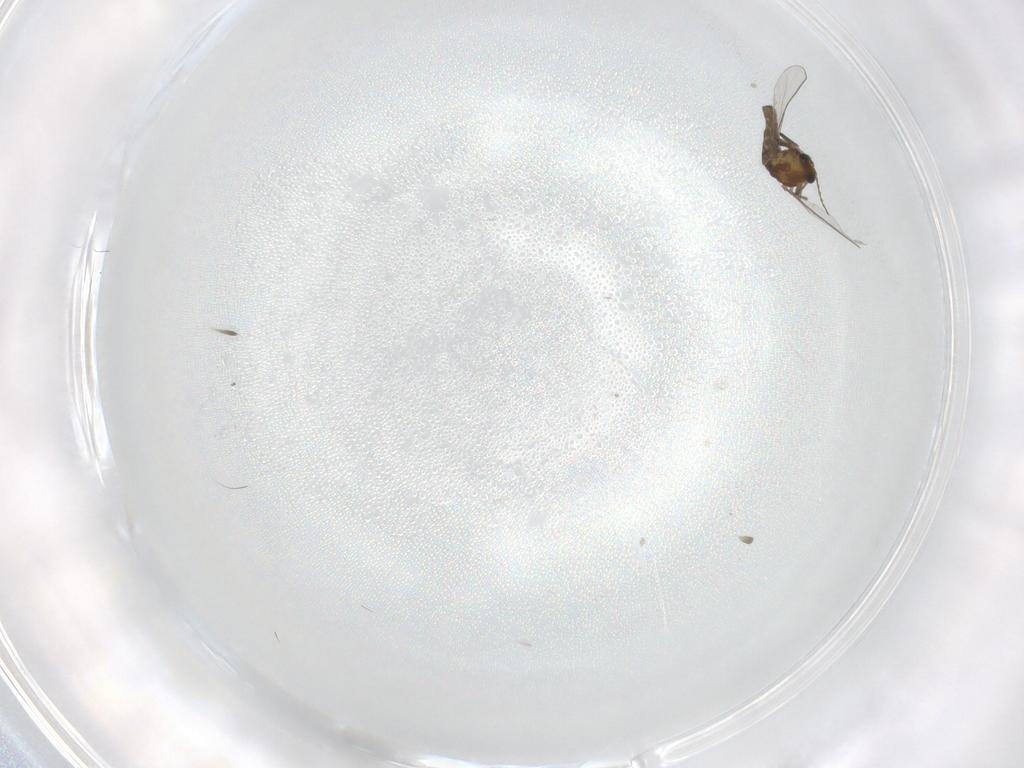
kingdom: Animalia
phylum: Arthropoda
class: Insecta
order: Diptera
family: Chironomidae
